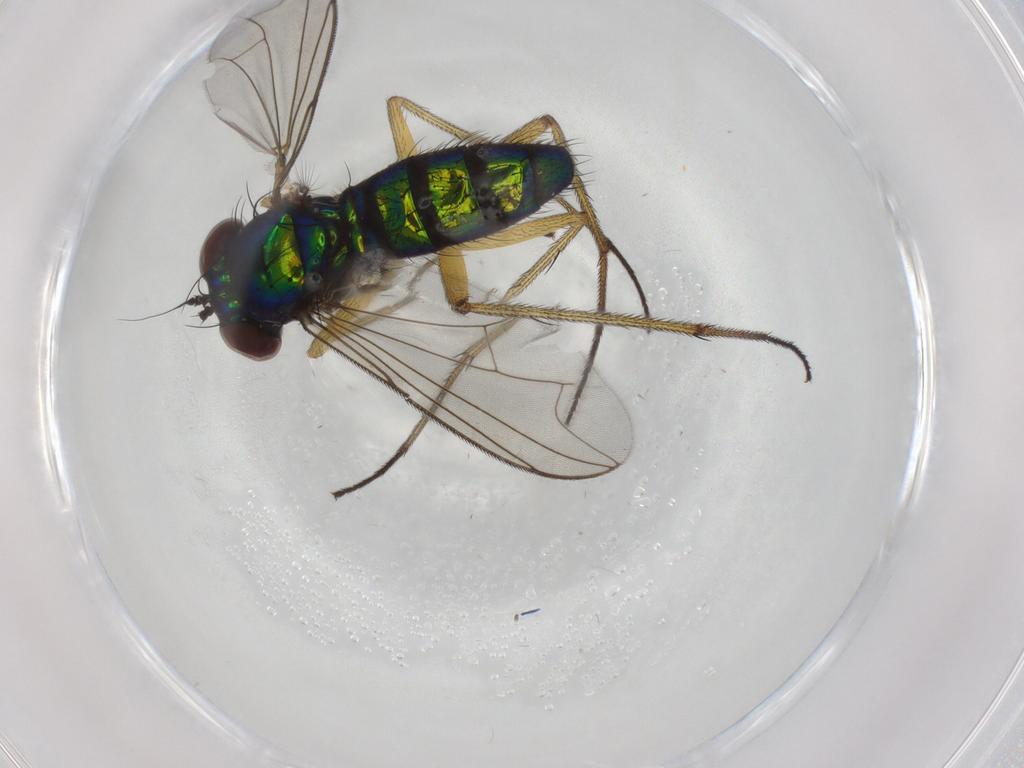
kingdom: Animalia
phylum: Arthropoda
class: Insecta
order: Diptera
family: Dolichopodidae
